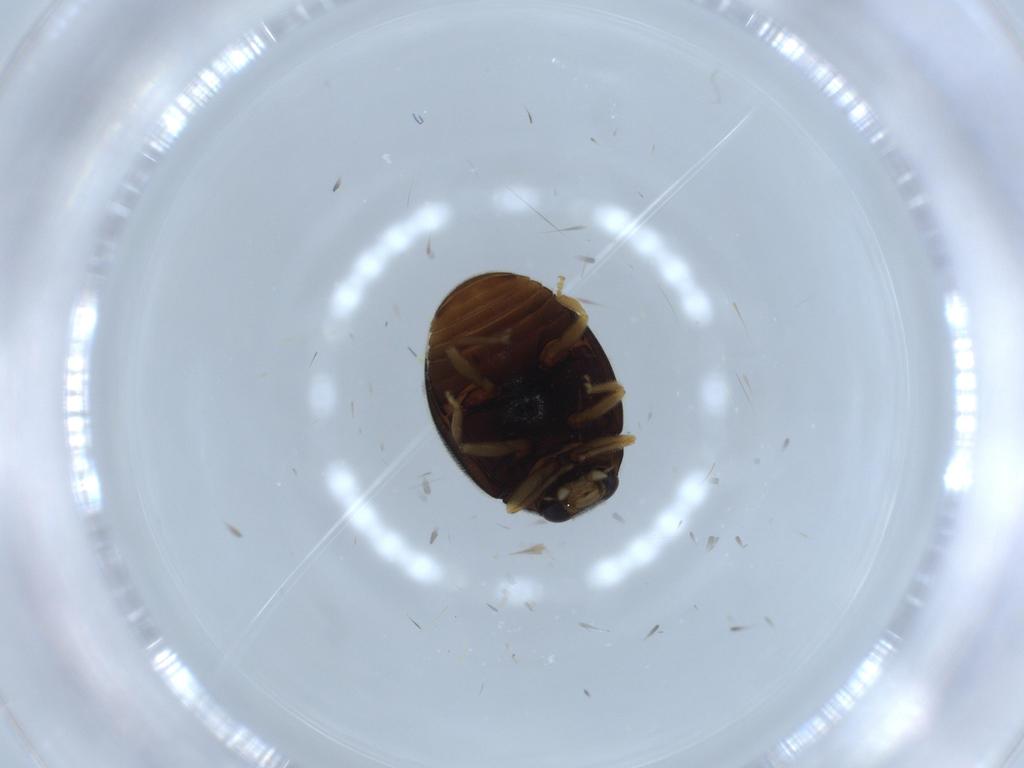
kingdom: Animalia
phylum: Arthropoda
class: Insecta
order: Coleoptera
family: Coccinellidae
